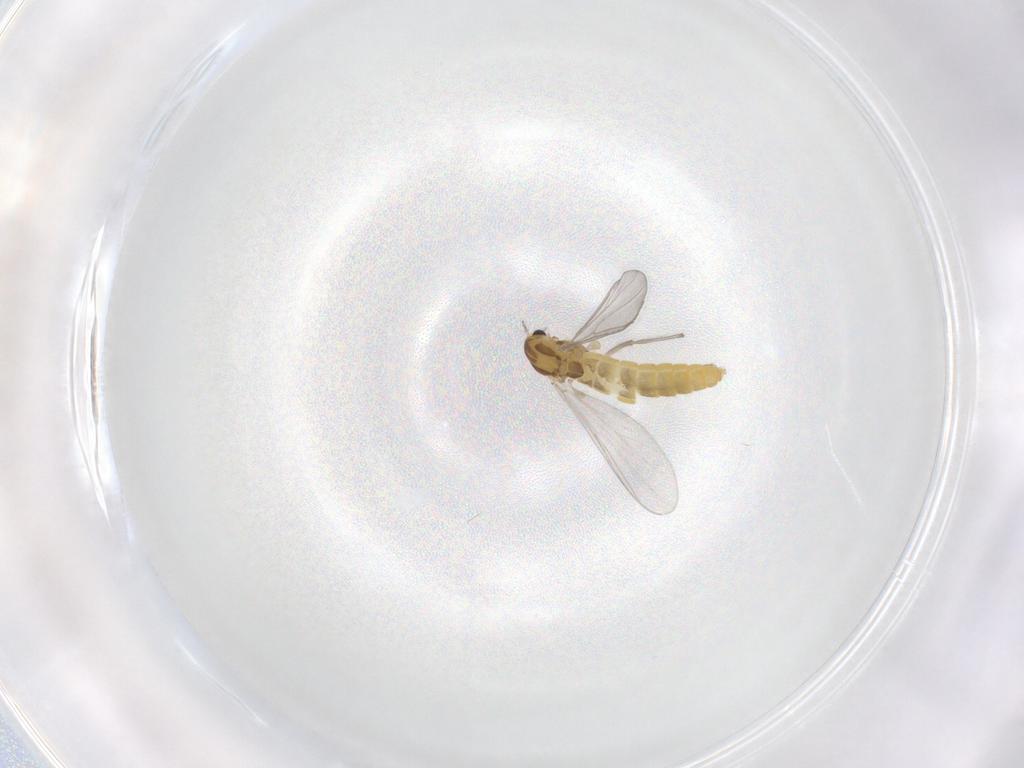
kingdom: Animalia
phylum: Arthropoda
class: Insecta
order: Diptera
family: Chironomidae
